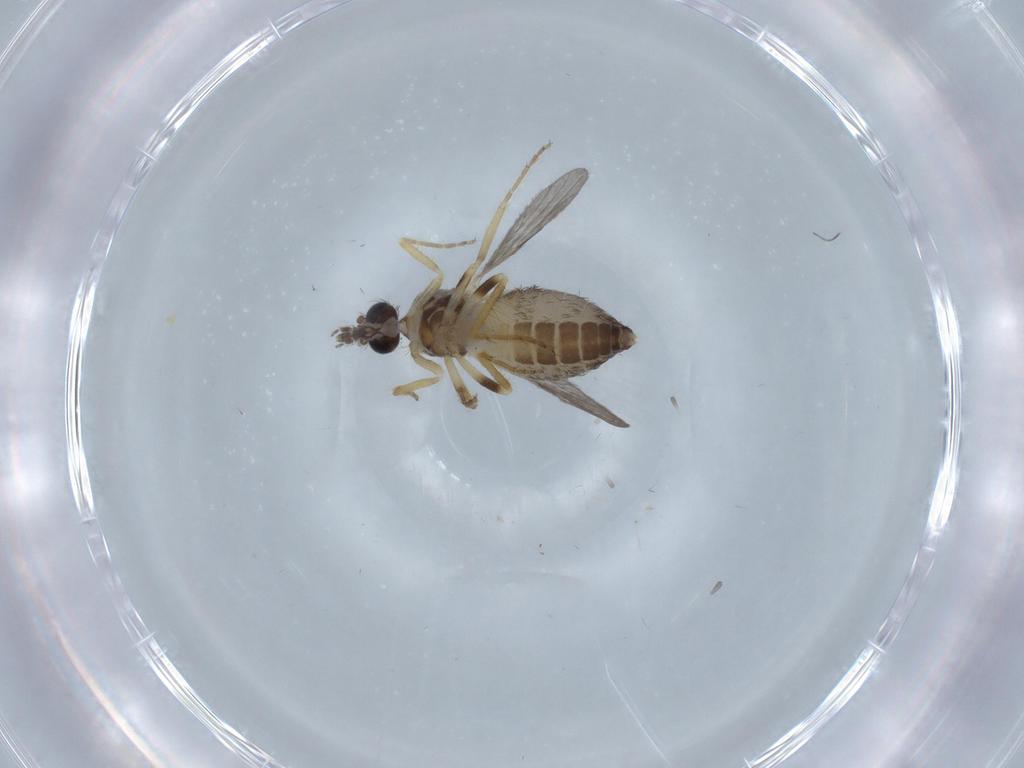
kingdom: Animalia
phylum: Arthropoda
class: Insecta
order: Diptera
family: Ceratopogonidae
